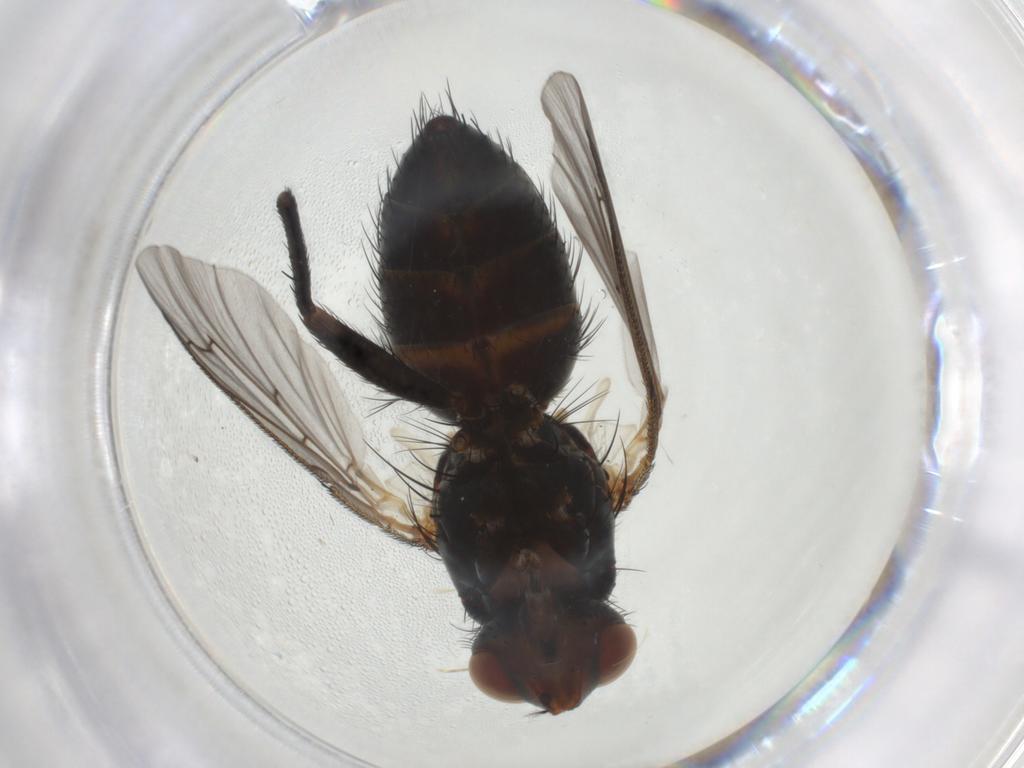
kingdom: Animalia
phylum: Arthropoda
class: Insecta
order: Diptera
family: Tachinidae
